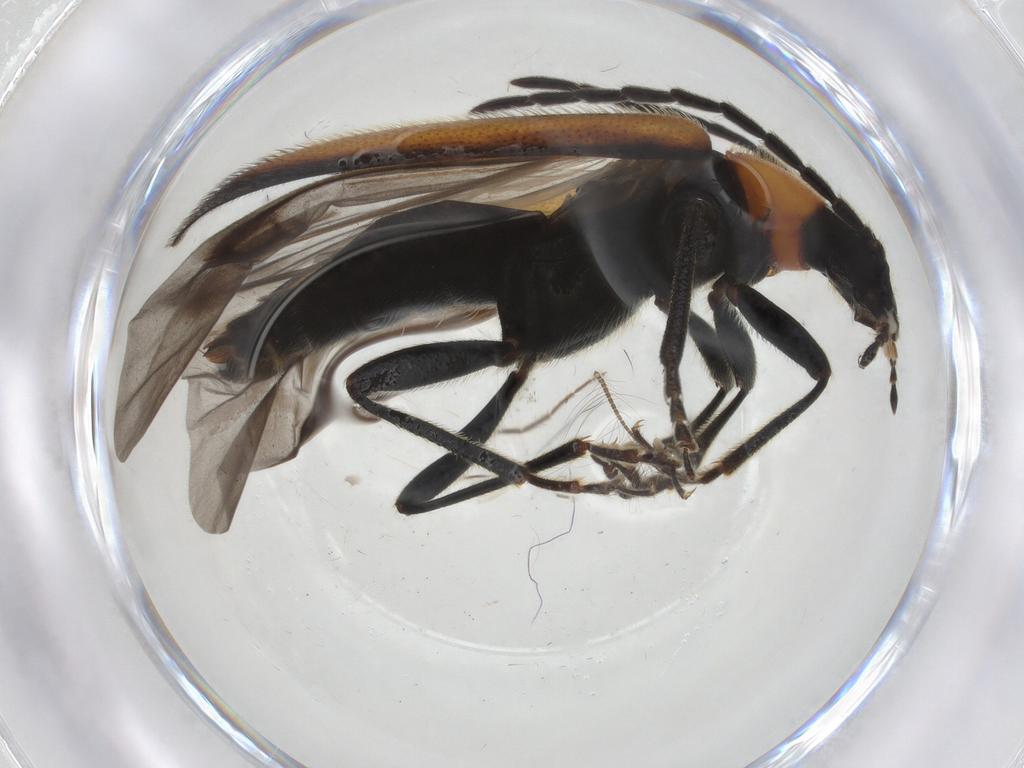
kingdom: Animalia
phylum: Arthropoda
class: Insecta
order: Coleoptera
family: Pyrochroidae
